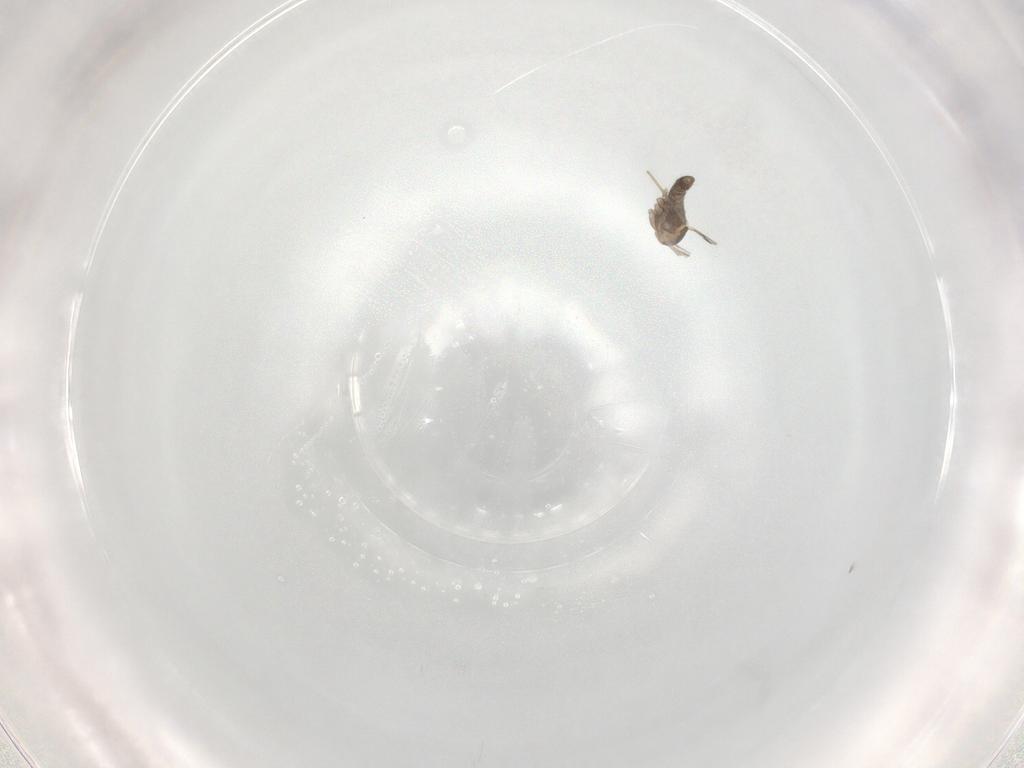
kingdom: Animalia
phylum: Arthropoda
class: Insecta
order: Diptera
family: Cecidomyiidae
